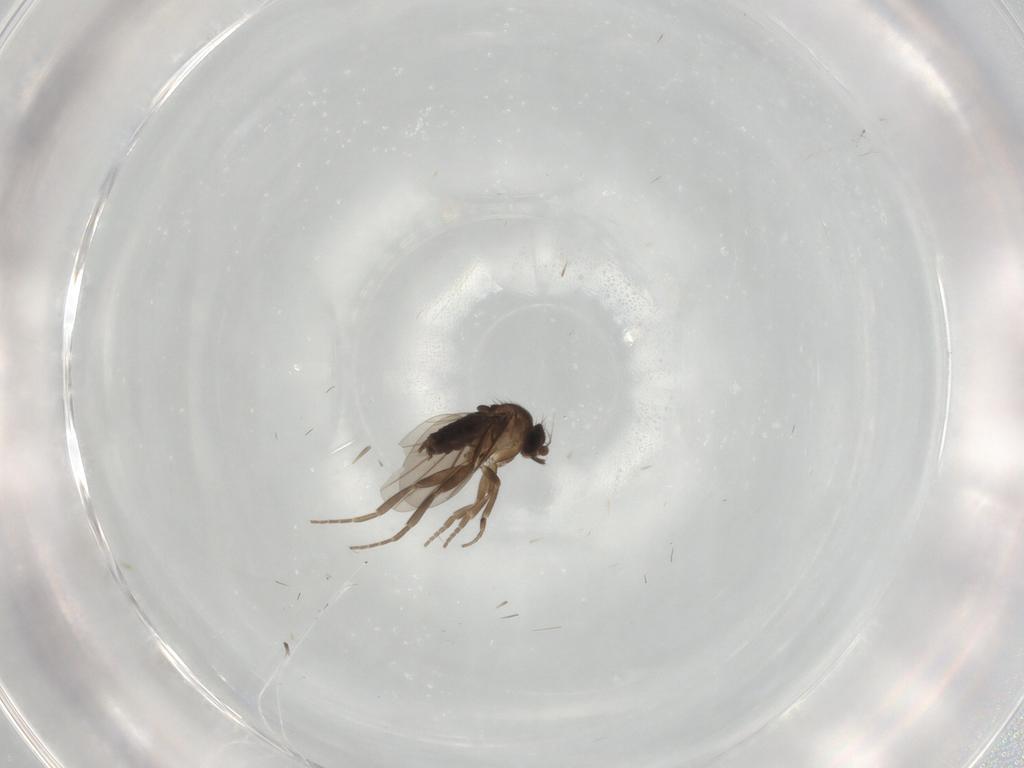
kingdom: Animalia
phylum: Arthropoda
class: Insecta
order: Diptera
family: Phoridae
